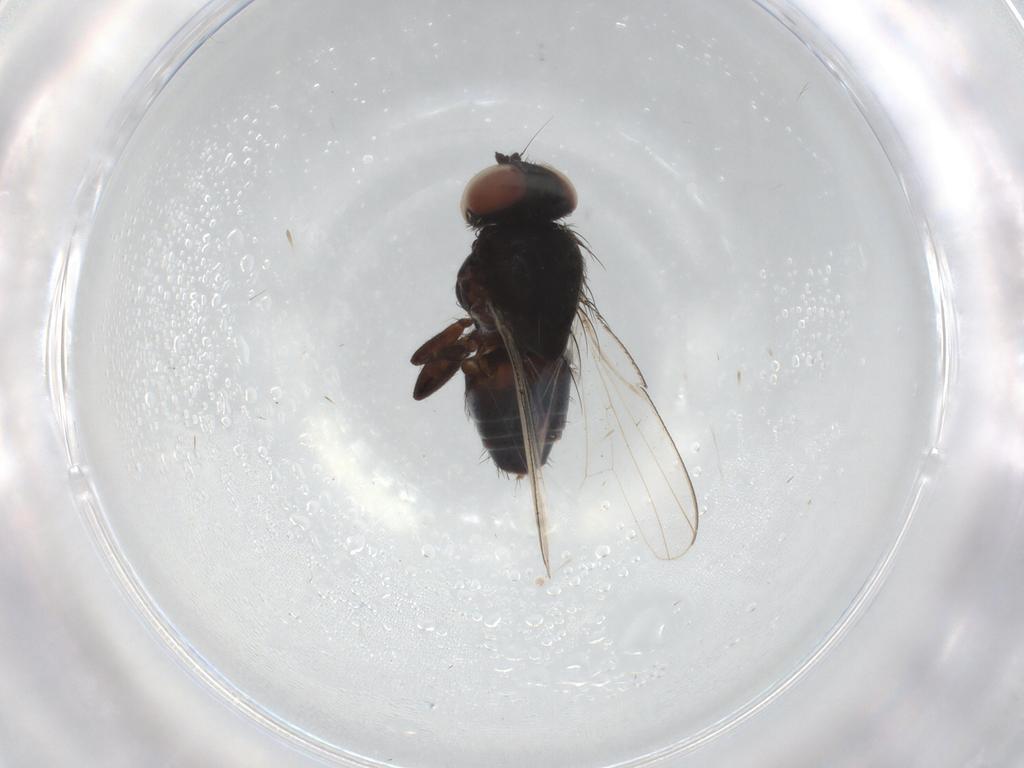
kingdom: Animalia
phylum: Arthropoda
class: Insecta
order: Diptera
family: Milichiidae
